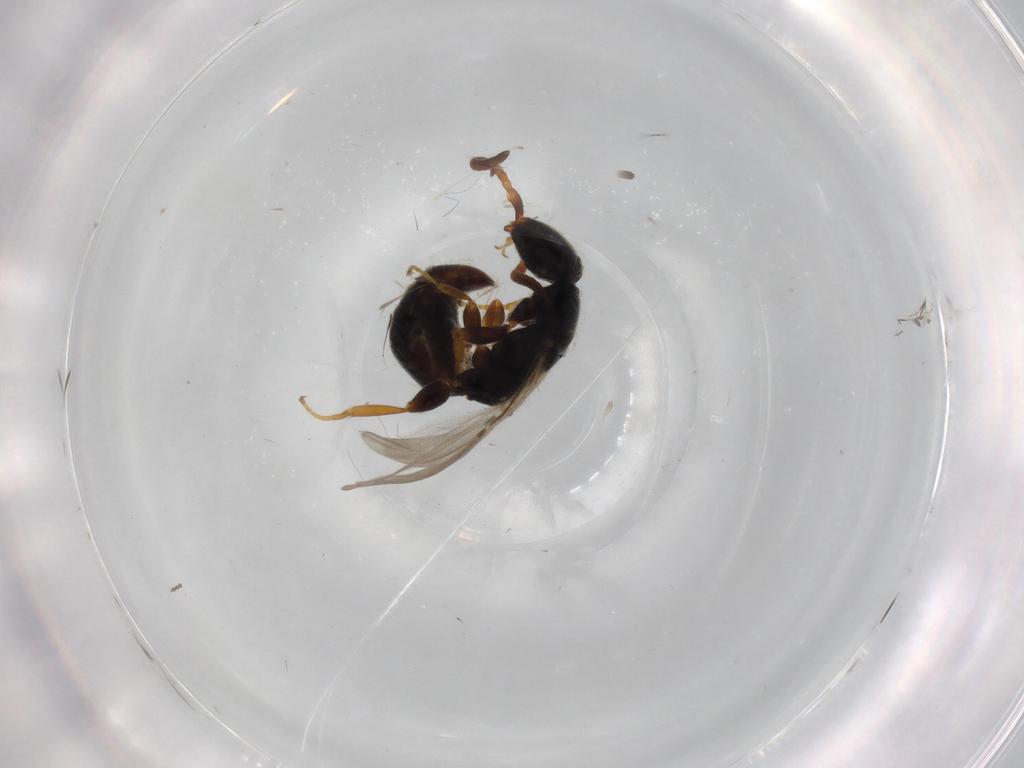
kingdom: Animalia
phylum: Arthropoda
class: Insecta
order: Hymenoptera
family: Bethylidae
